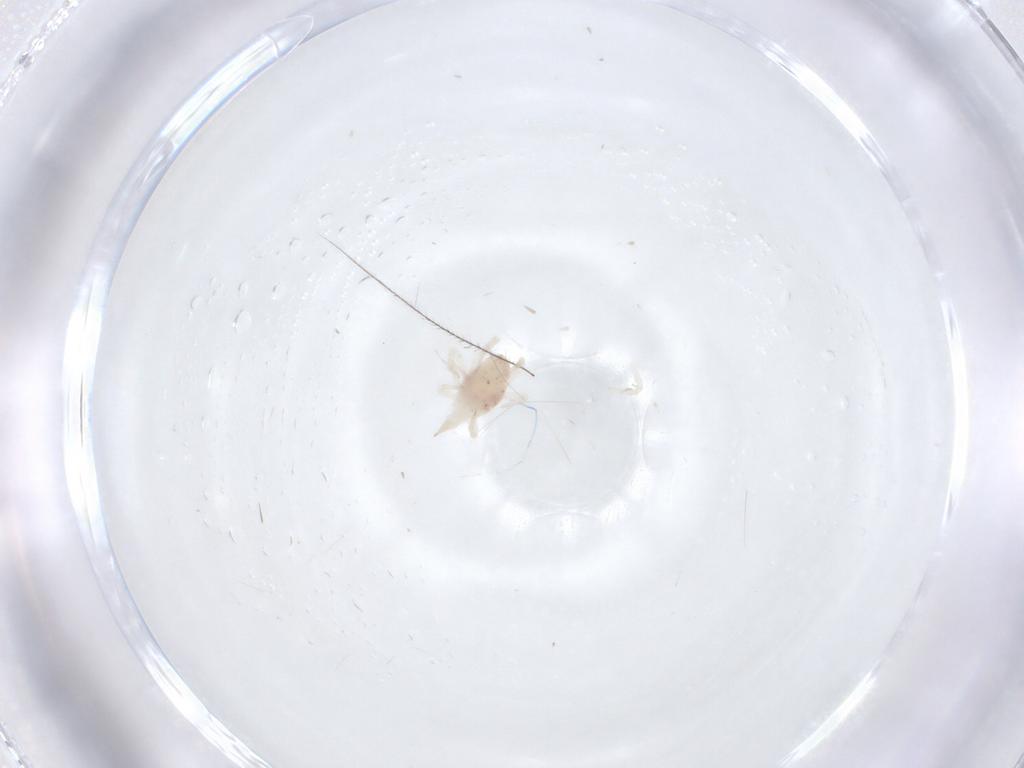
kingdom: Animalia
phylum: Arthropoda
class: Arachnida
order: Trombidiformes
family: Bdellidae
